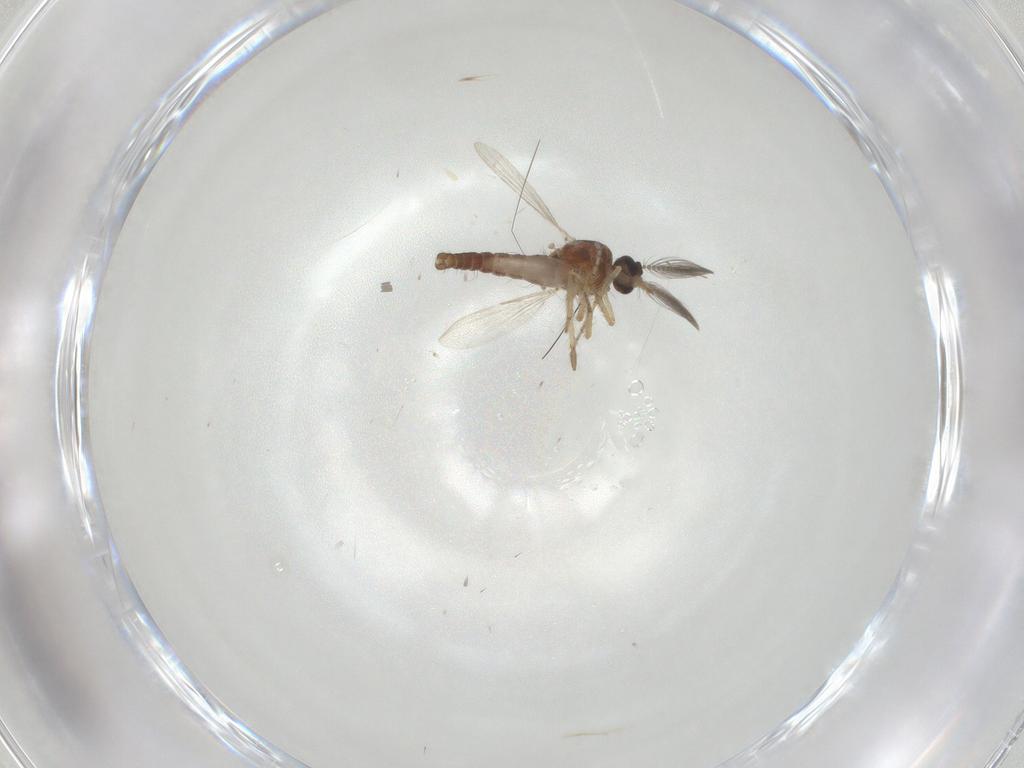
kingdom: Animalia
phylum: Arthropoda
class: Insecta
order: Diptera
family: Ceratopogonidae
